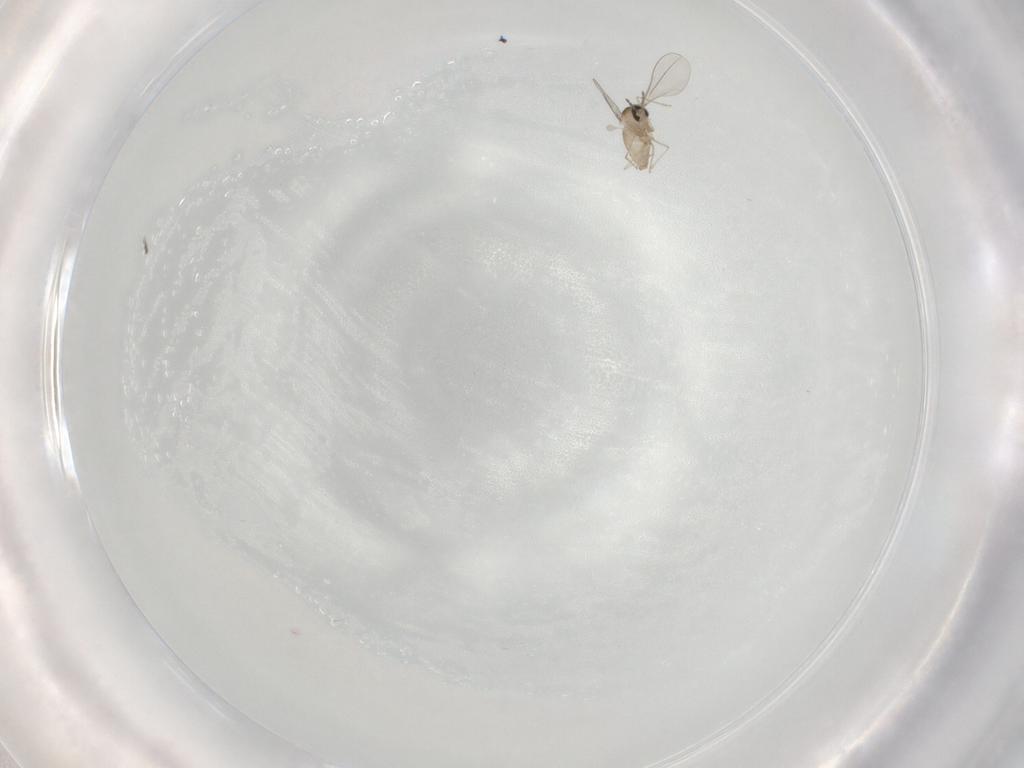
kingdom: Animalia
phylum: Arthropoda
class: Insecta
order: Diptera
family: Cecidomyiidae
